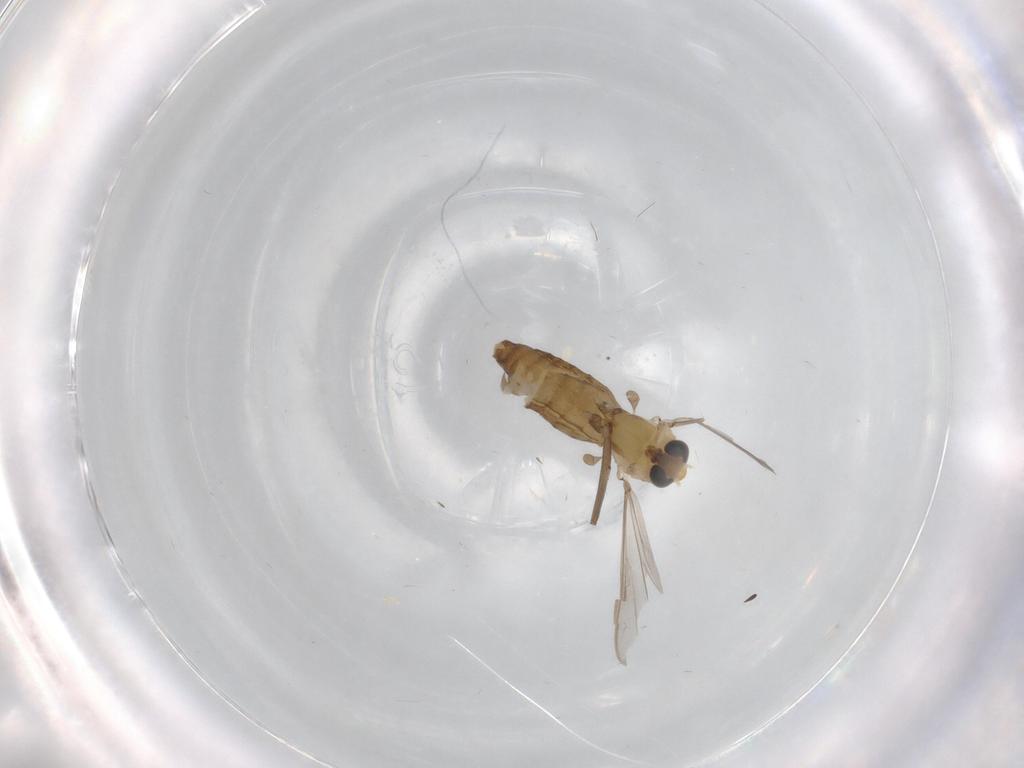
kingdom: Animalia
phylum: Arthropoda
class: Insecta
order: Diptera
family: Chironomidae
